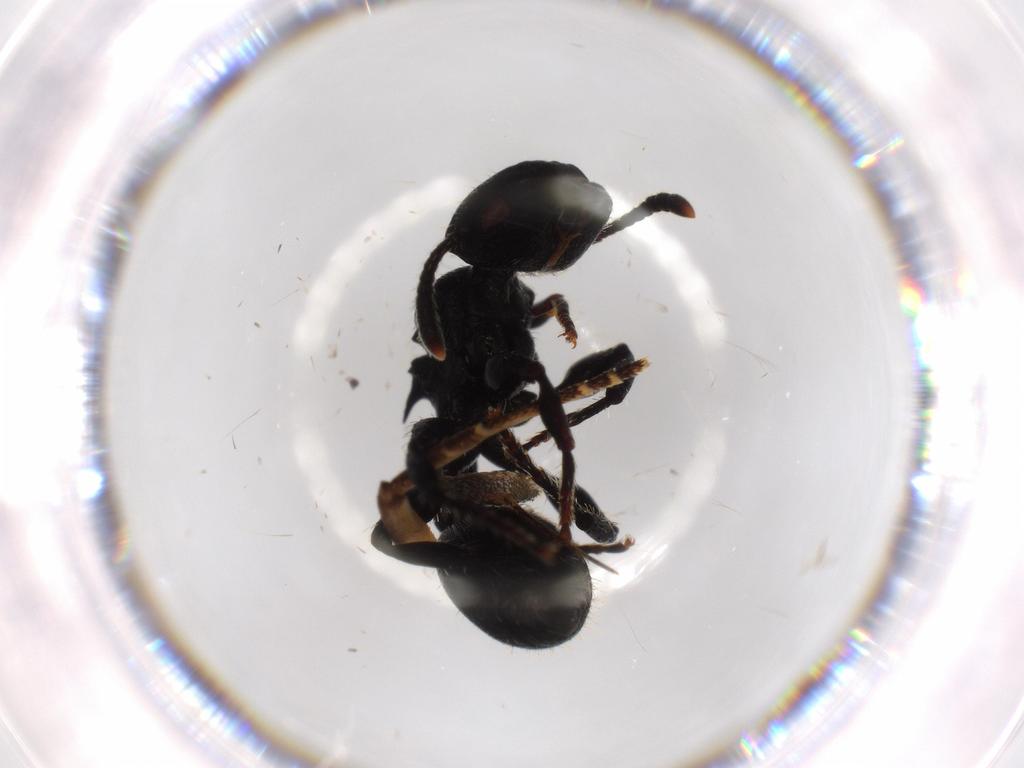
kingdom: Animalia
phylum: Arthropoda
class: Insecta
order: Hymenoptera
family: Formicidae
